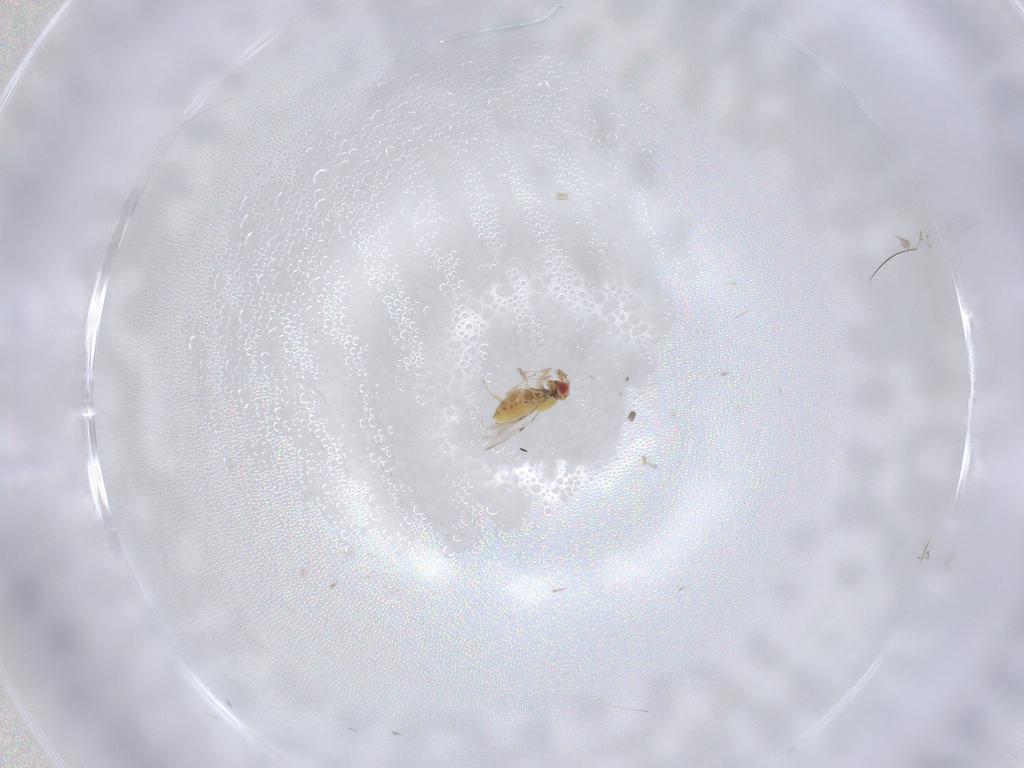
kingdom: Animalia
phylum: Arthropoda
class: Insecta
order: Hymenoptera
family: Trichogrammatidae
